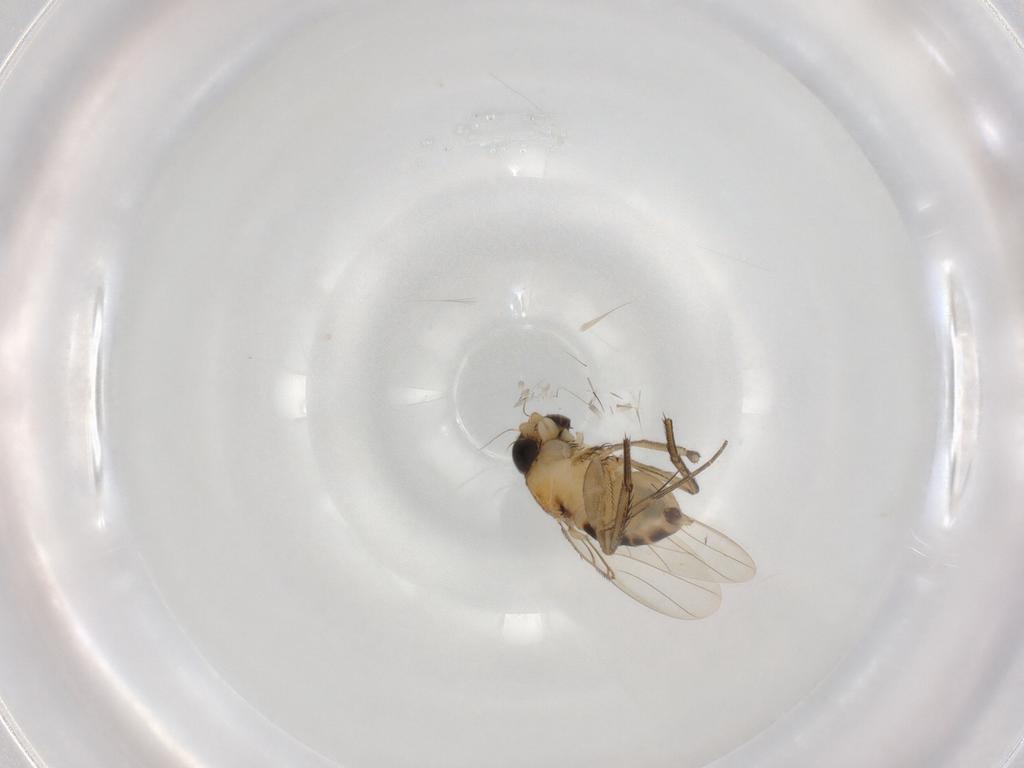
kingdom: Animalia
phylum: Arthropoda
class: Insecta
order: Diptera
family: Phoridae
